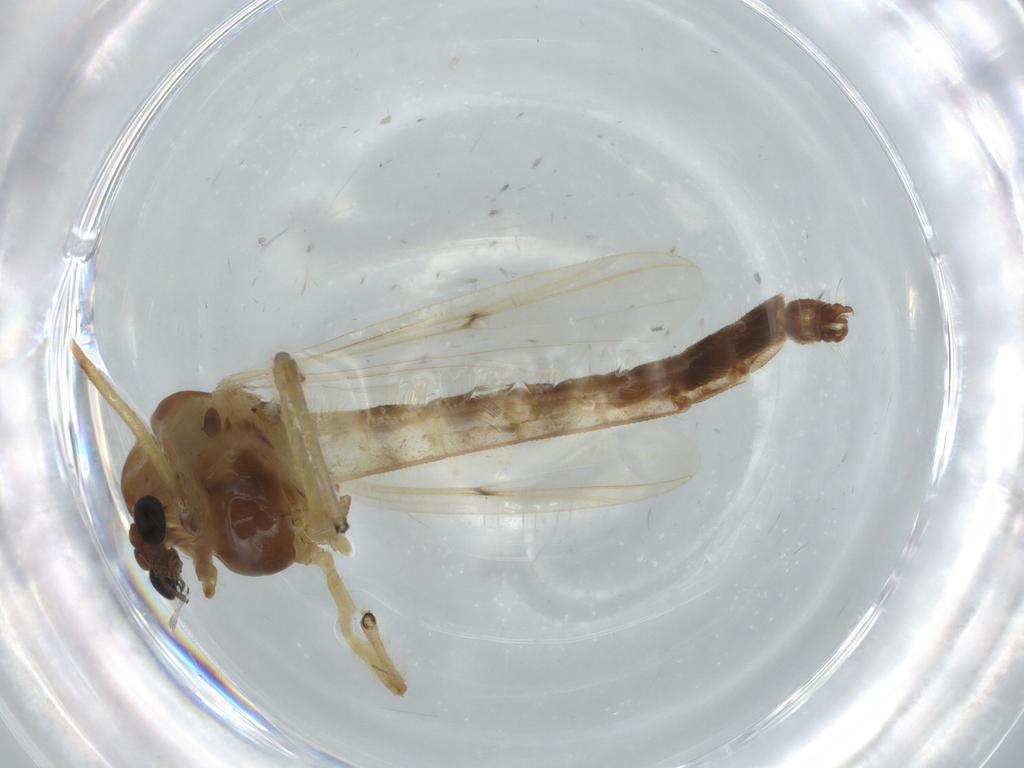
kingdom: Animalia
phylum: Arthropoda
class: Insecta
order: Diptera
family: Chironomidae
